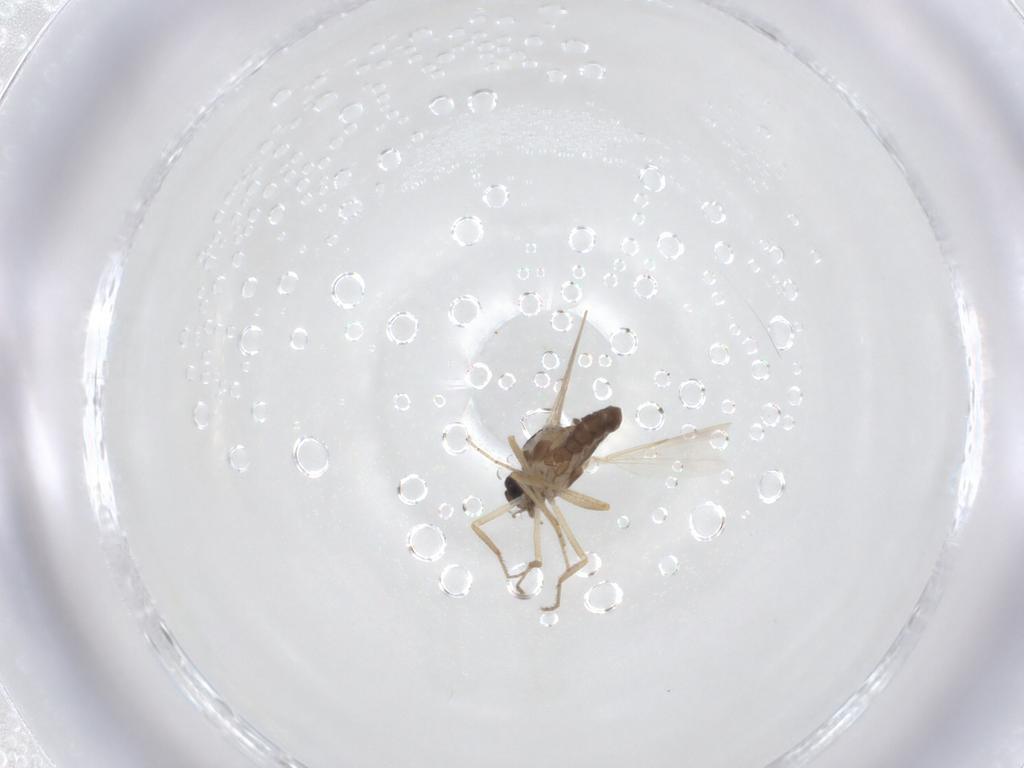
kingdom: Animalia
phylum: Arthropoda
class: Insecta
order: Diptera
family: Ceratopogonidae
